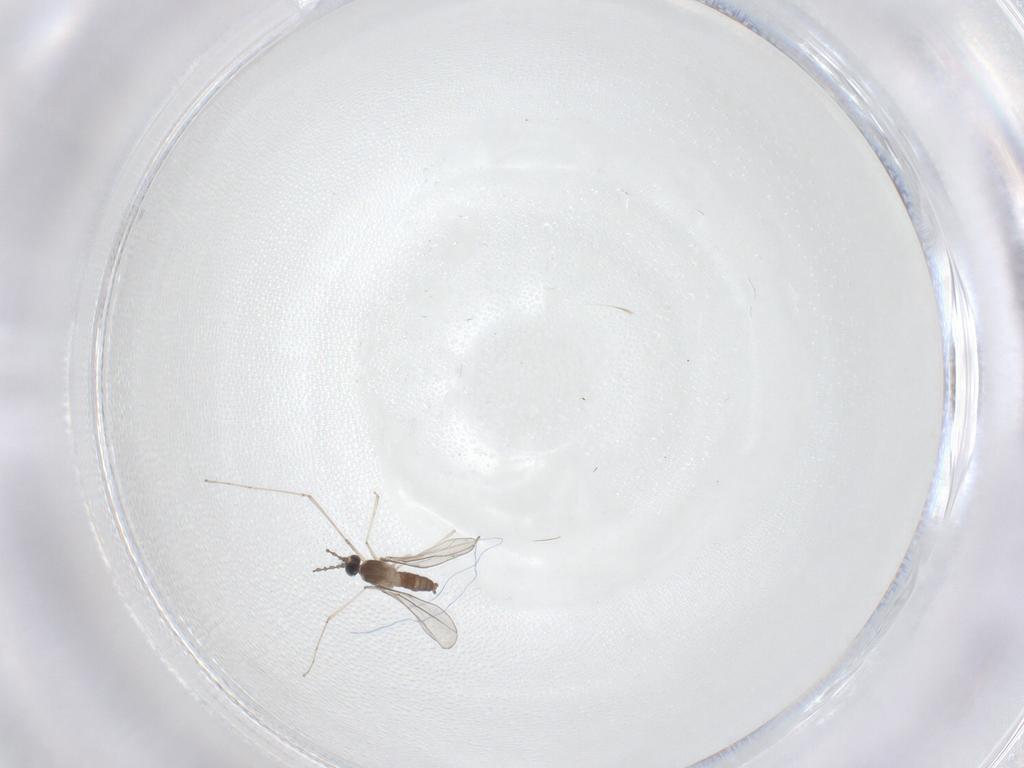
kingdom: Animalia
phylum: Arthropoda
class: Insecta
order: Diptera
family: Cecidomyiidae
